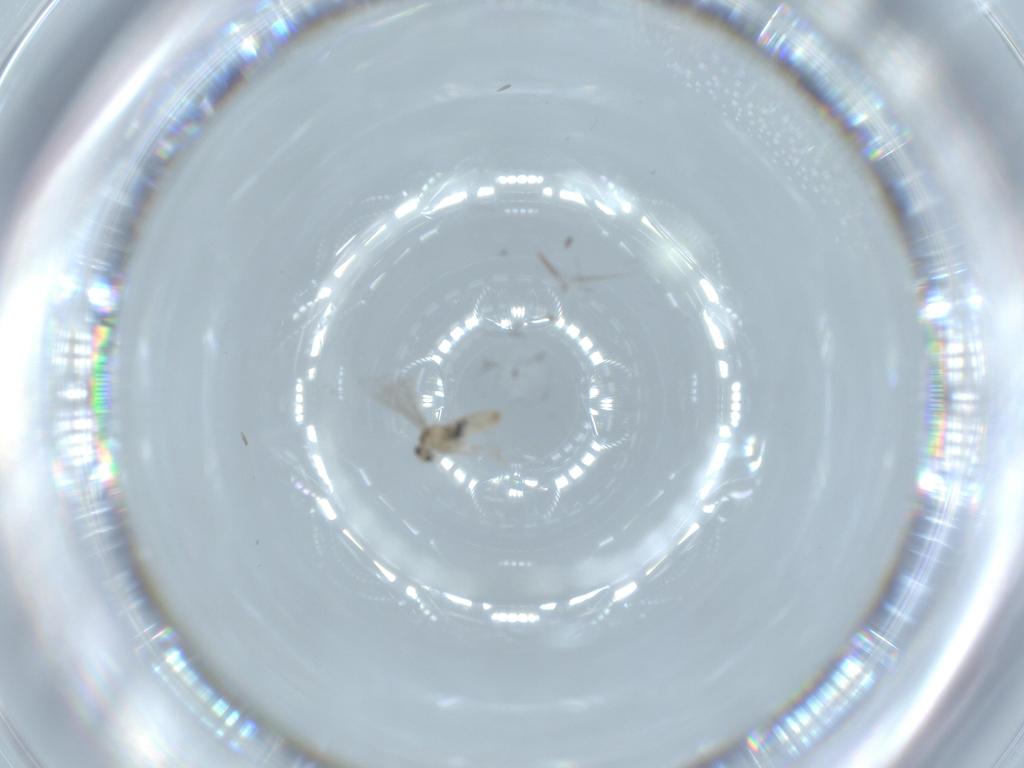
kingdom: Animalia
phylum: Arthropoda
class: Insecta
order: Diptera
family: Cecidomyiidae
